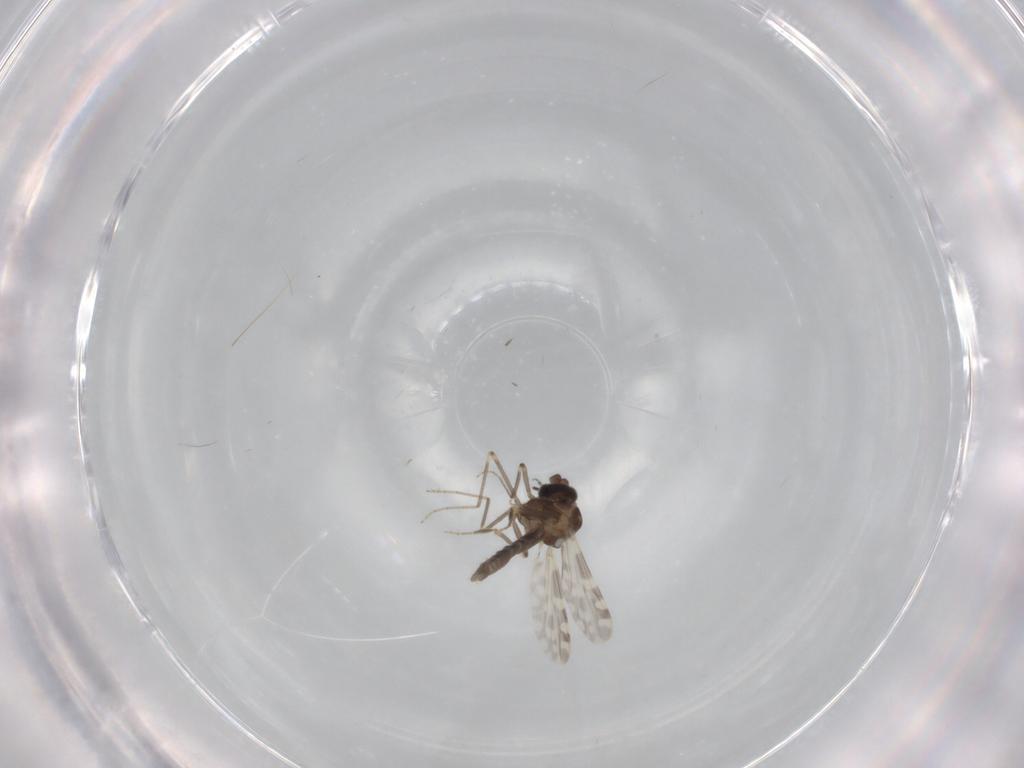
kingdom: Animalia
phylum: Arthropoda
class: Insecta
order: Diptera
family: Ceratopogonidae
